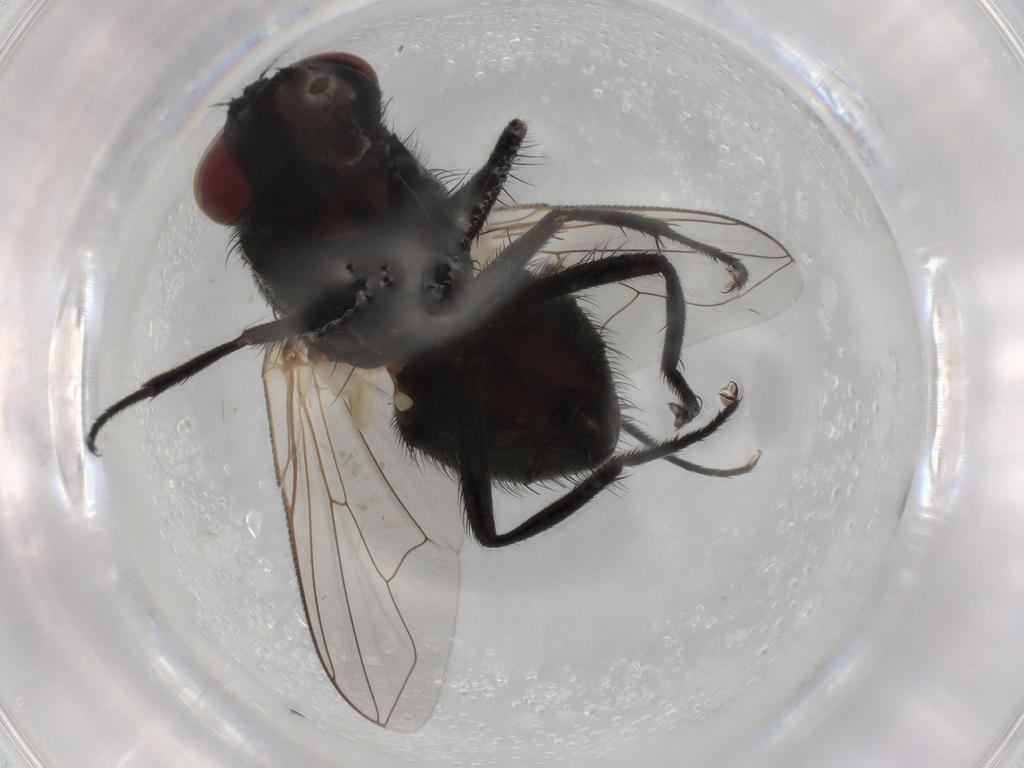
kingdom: Animalia
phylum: Arthropoda
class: Insecta
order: Diptera
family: Muscidae
